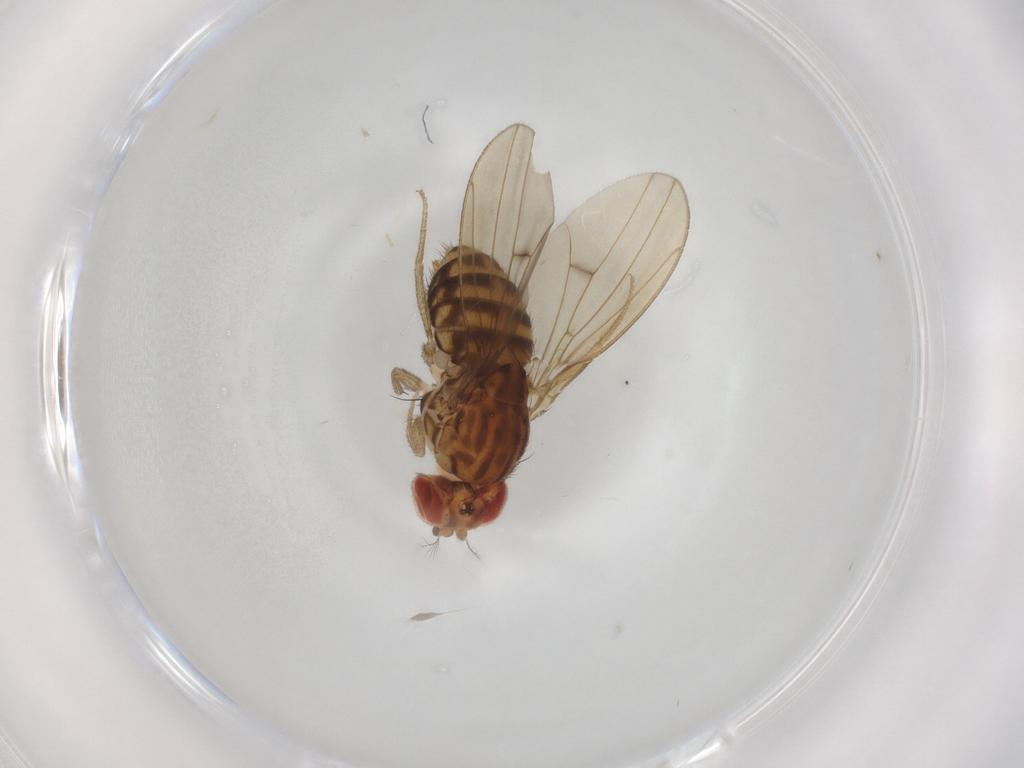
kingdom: Animalia
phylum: Arthropoda
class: Insecta
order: Diptera
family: Drosophilidae
